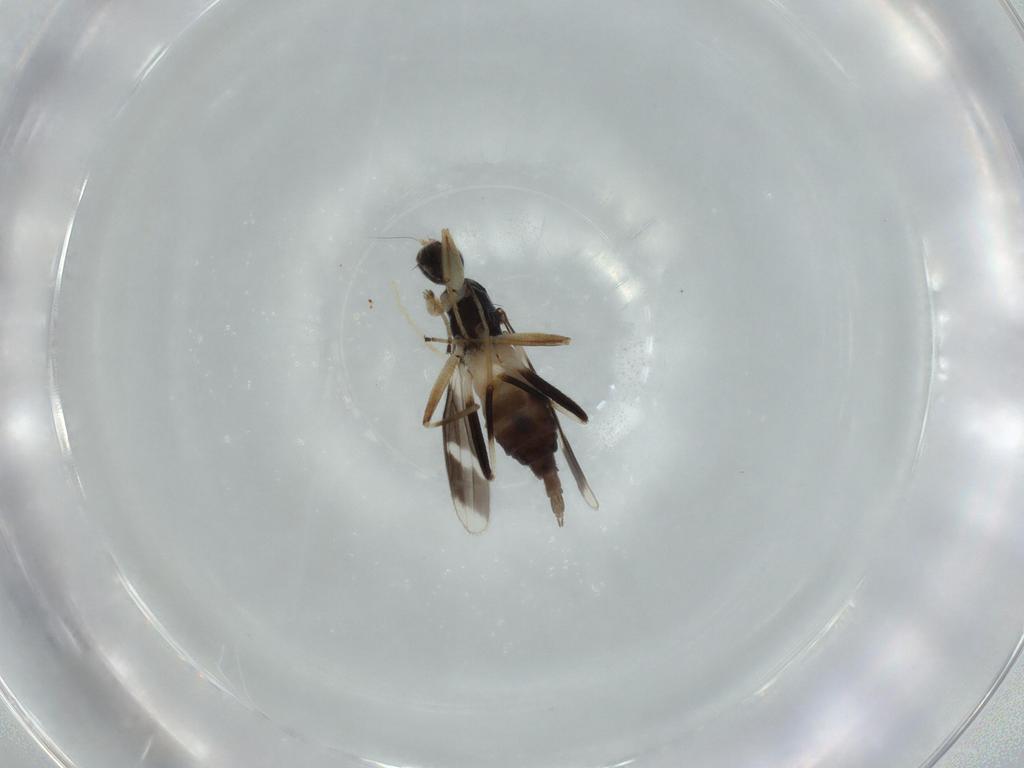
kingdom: Animalia
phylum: Arthropoda
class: Insecta
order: Diptera
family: Hybotidae
